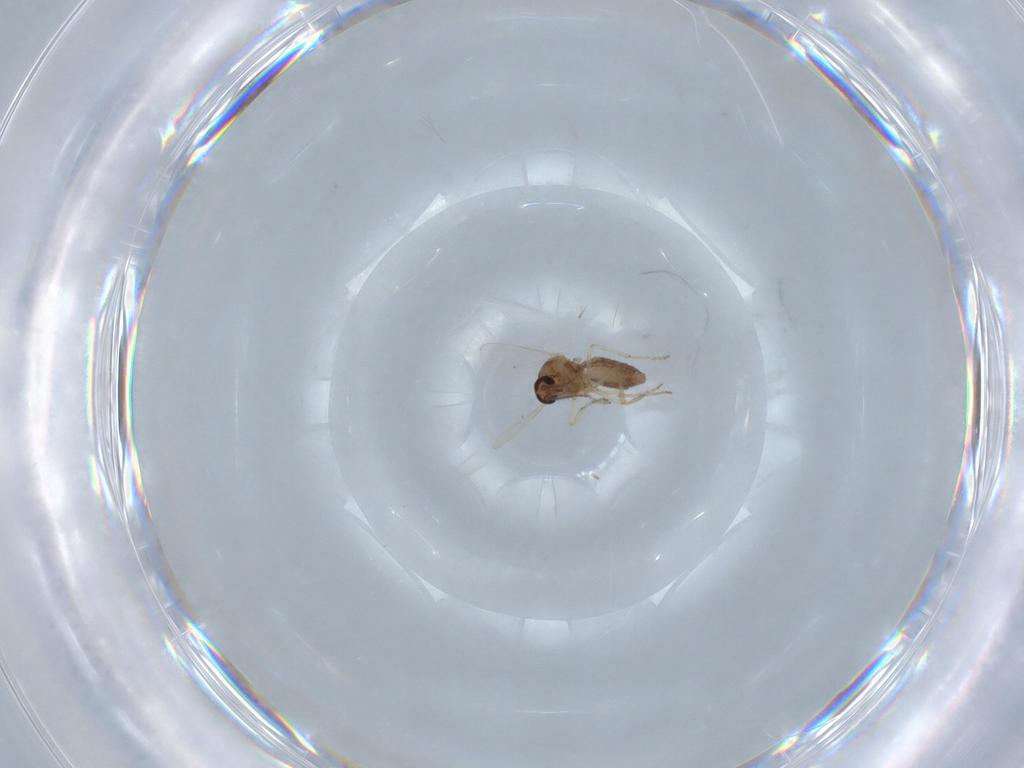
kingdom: Animalia
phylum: Arthropoda
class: Insecta
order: Diptera
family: Ceratopogonidae
